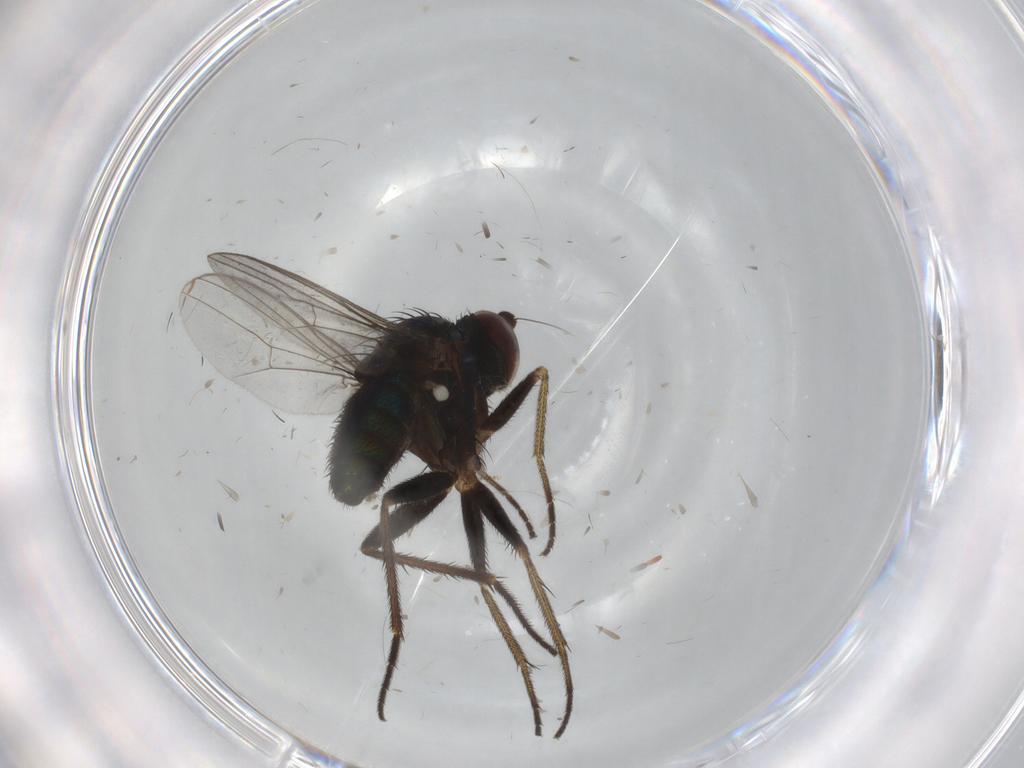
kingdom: Animalia
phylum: Arthropoda
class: Insecta
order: Diptera
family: Dolichopodidae
